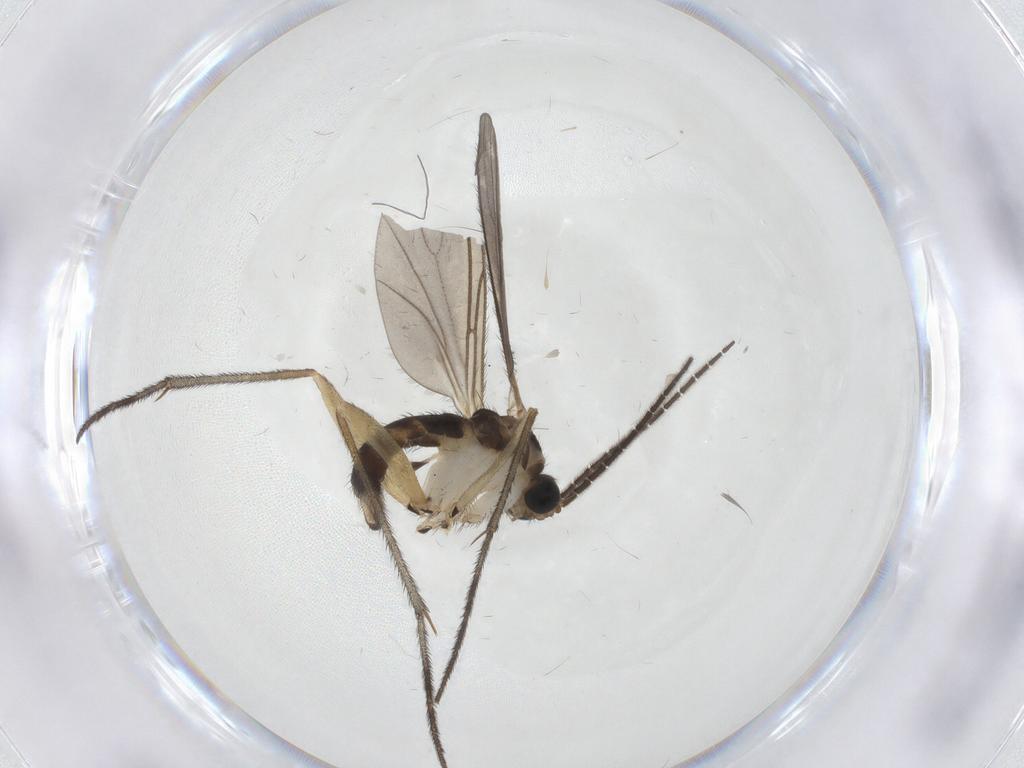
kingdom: Animalia
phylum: Arthropoda
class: Insecta
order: Diptera
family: Sciaridae
